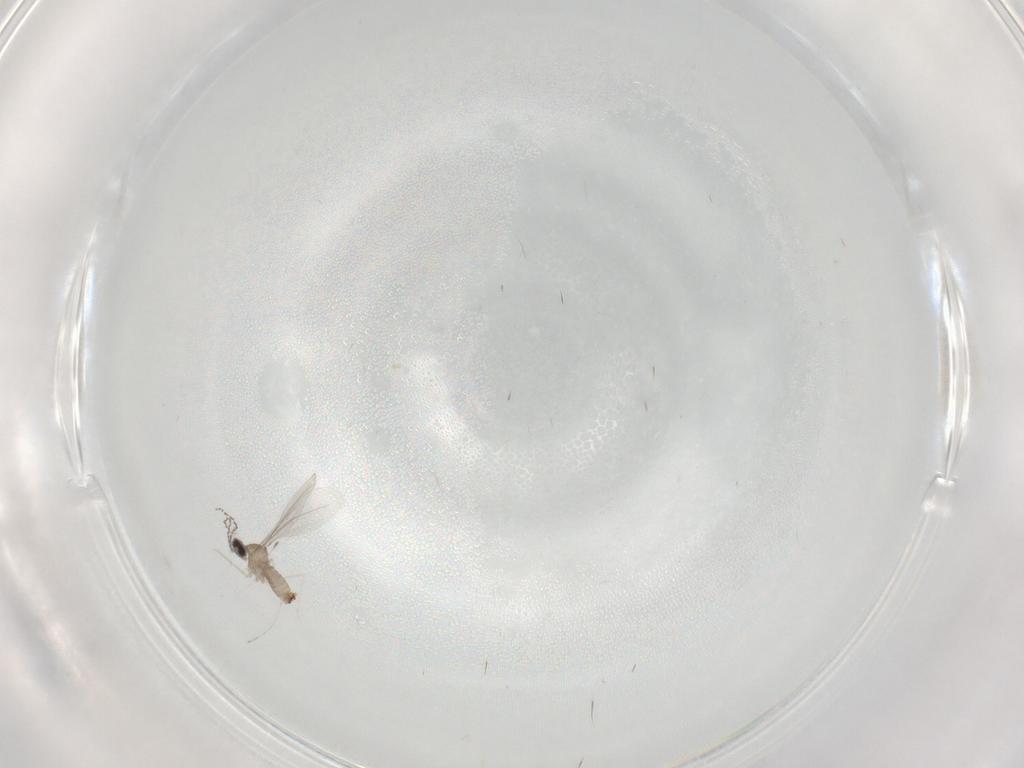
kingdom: Animalia
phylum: Arthropoda
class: Insecta
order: Diptera
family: Cecidomyiidae
